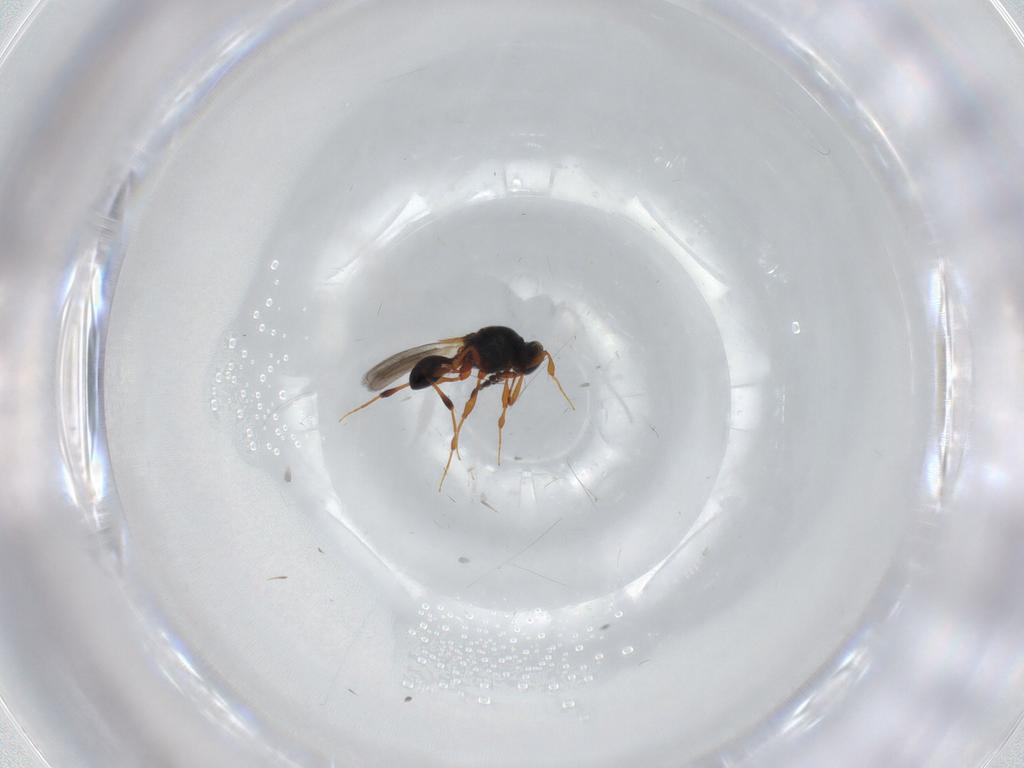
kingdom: Animalia
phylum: Arthropoda
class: Insecta
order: Hymenoptera
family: Platygastridae
